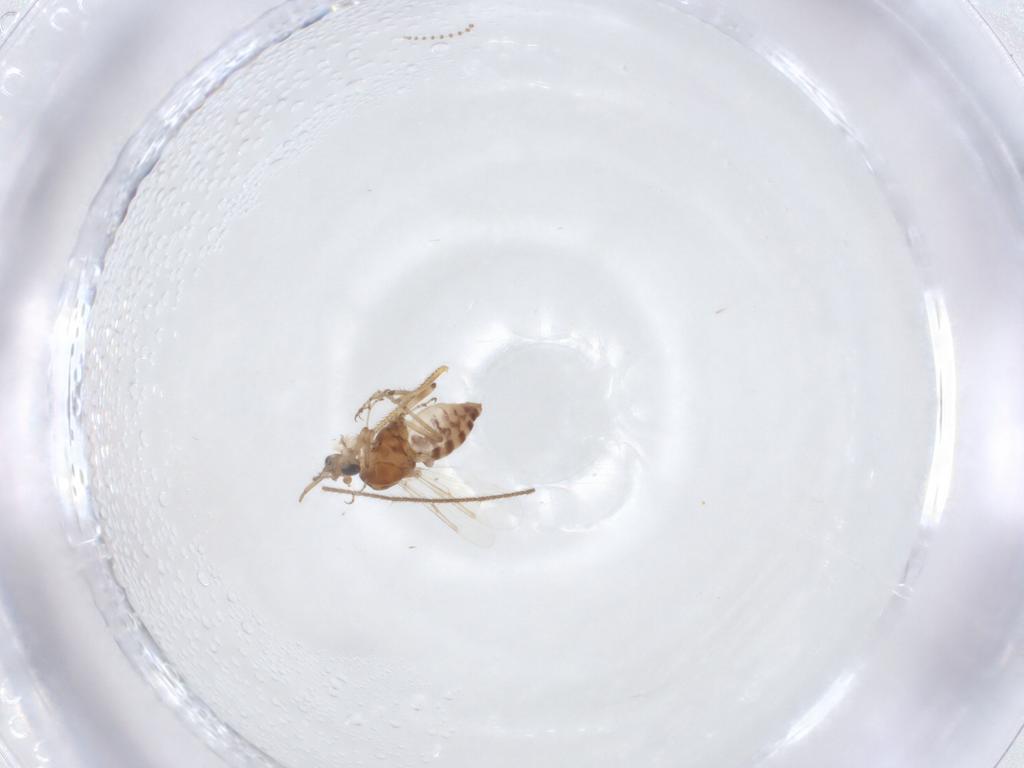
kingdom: Animalia
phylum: Arthropoda
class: Insecta
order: Diptera
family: Ceratopogonidae
